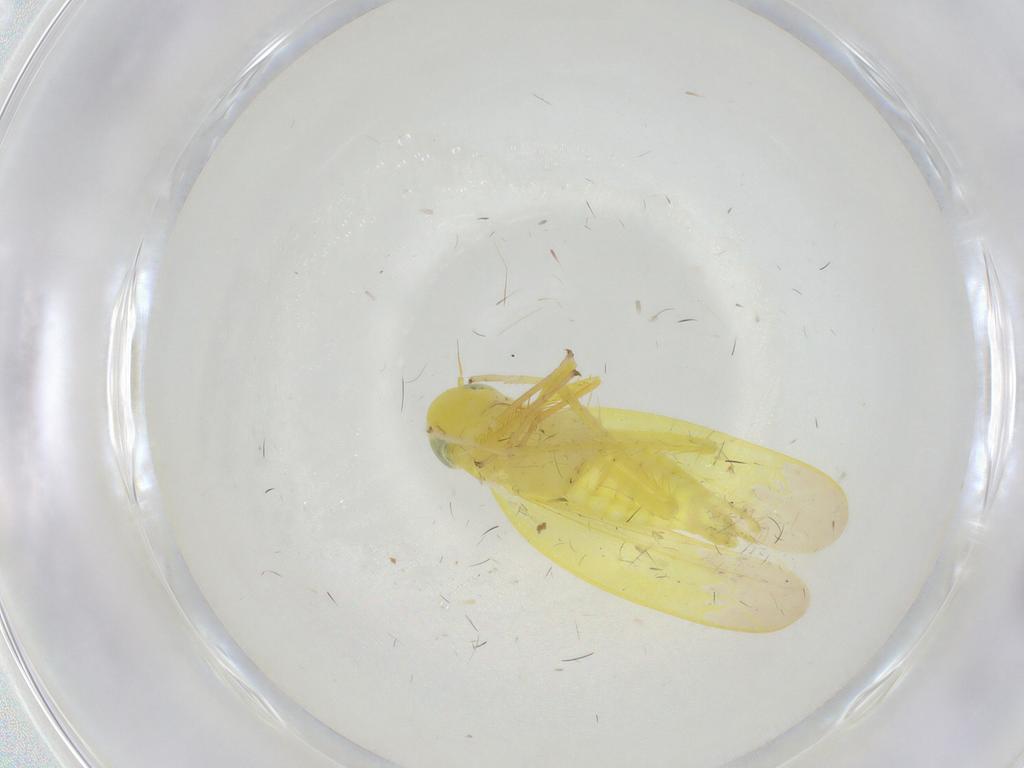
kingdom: Animalia
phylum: Arthropoda
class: Insecta
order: Hemiptera
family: Cicadellidae
